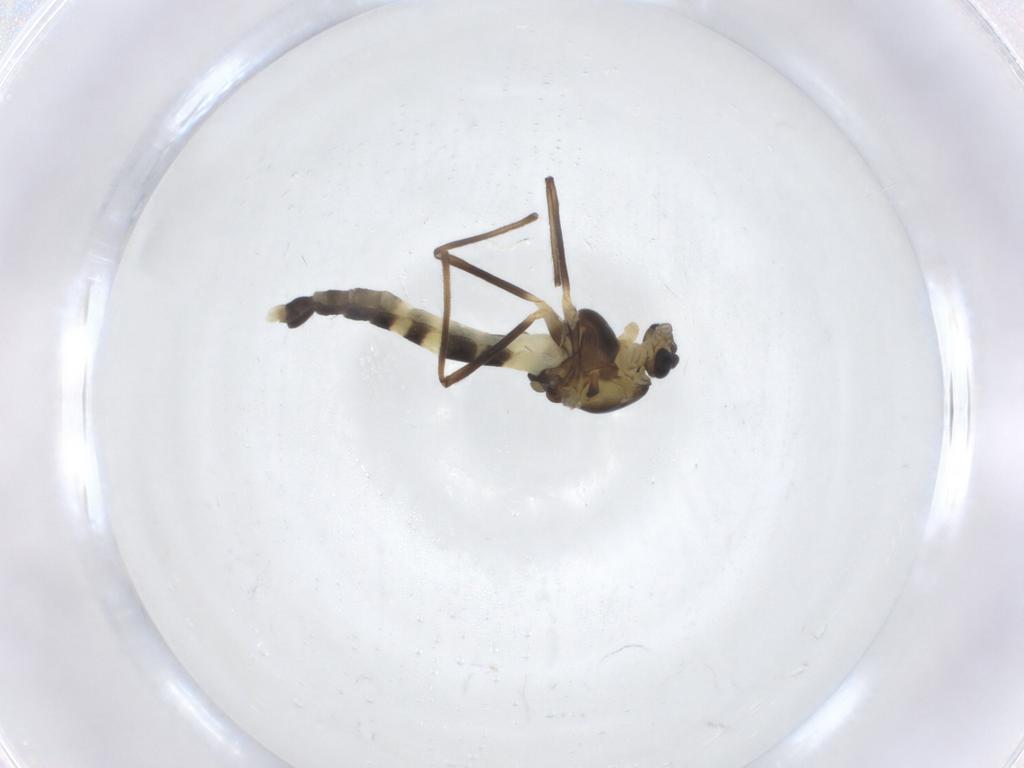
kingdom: Animalia
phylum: Arthropoda
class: Insecta
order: Diptera
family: Chironomidae
